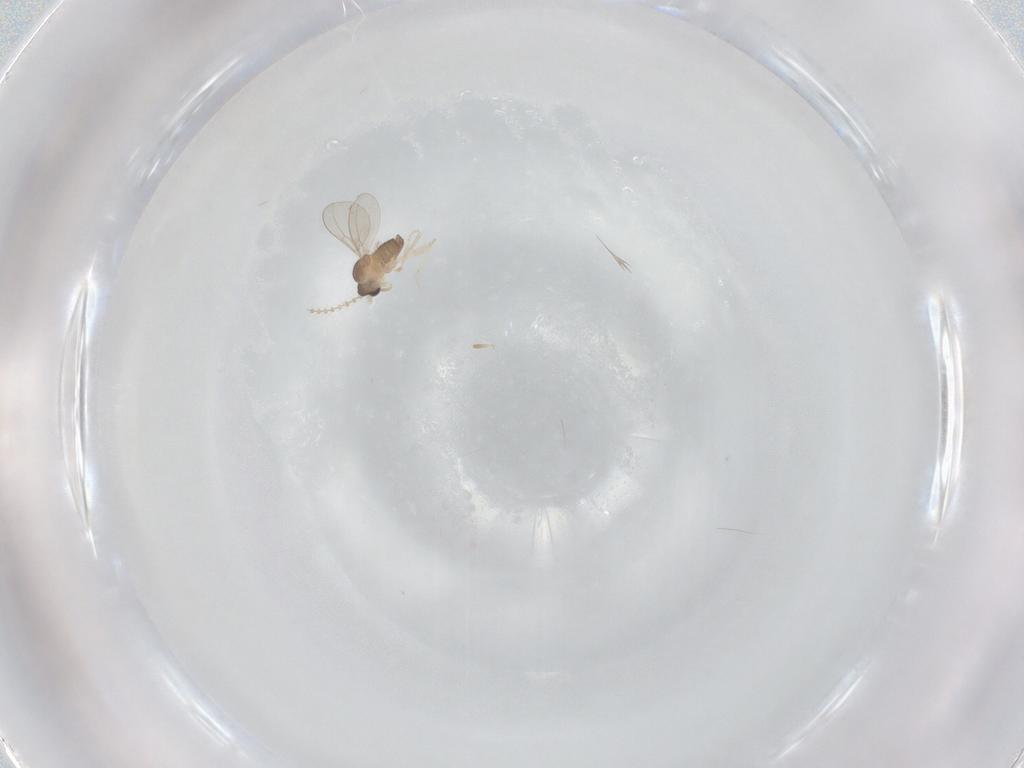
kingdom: Animalia
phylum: Arthropoda
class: Insecta
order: Diptera
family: Cecidomyiidae
